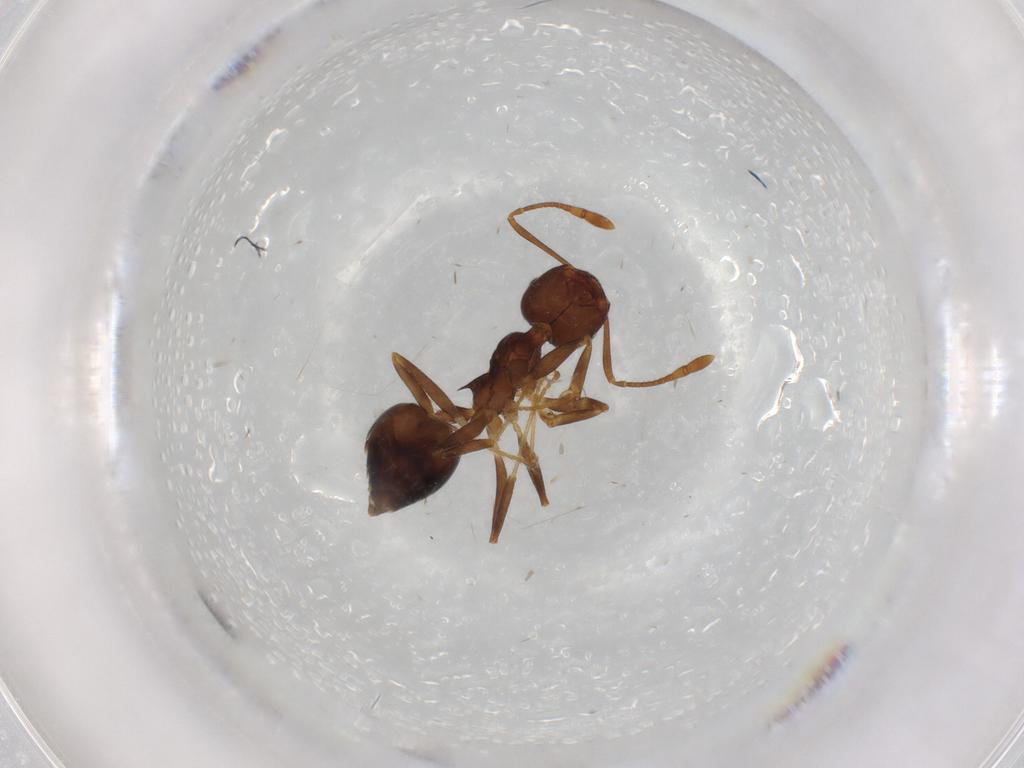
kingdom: Animalia
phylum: Arthropoda
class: Insecta
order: Hymenoptera
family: Formicidae
